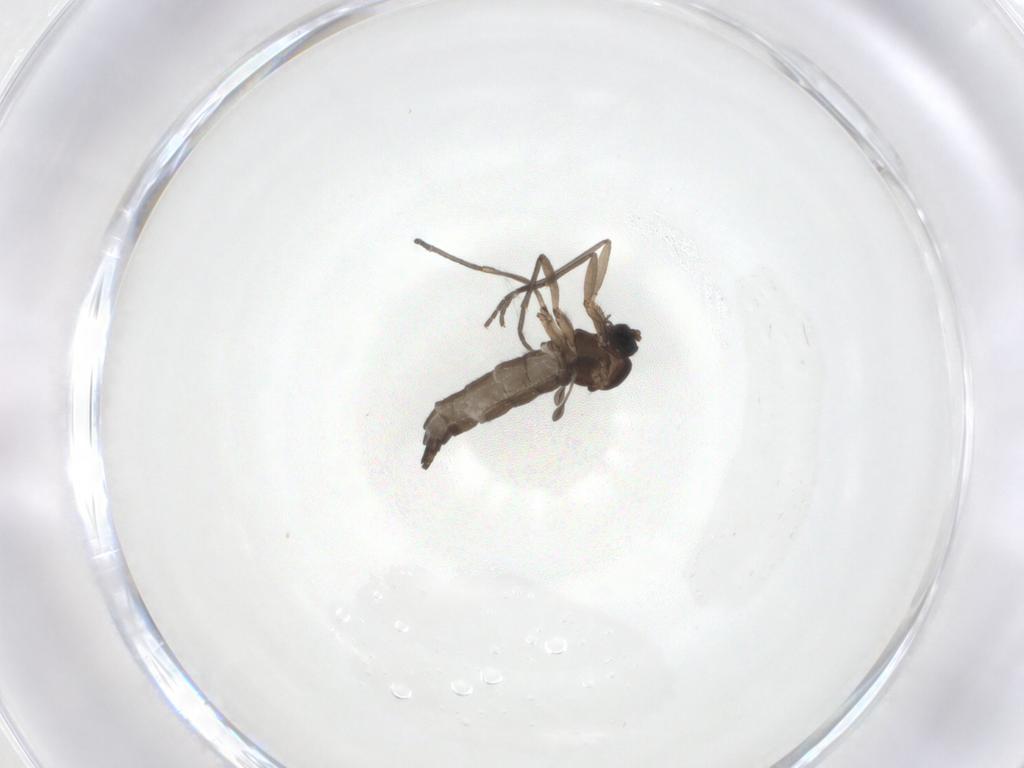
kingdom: Animalia
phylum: Arthropoda
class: Insecta
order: Diptera
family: Sciaridae
